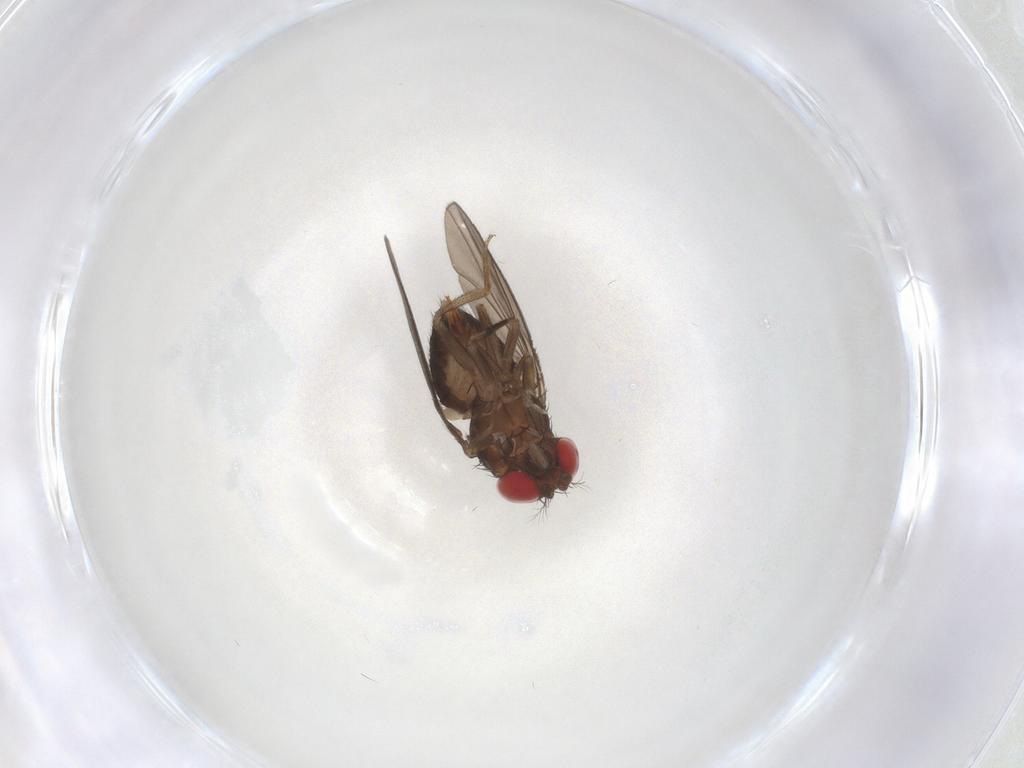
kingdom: Animalia
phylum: Arthropoda
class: Insecta
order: Diptera
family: Drosophilidae
